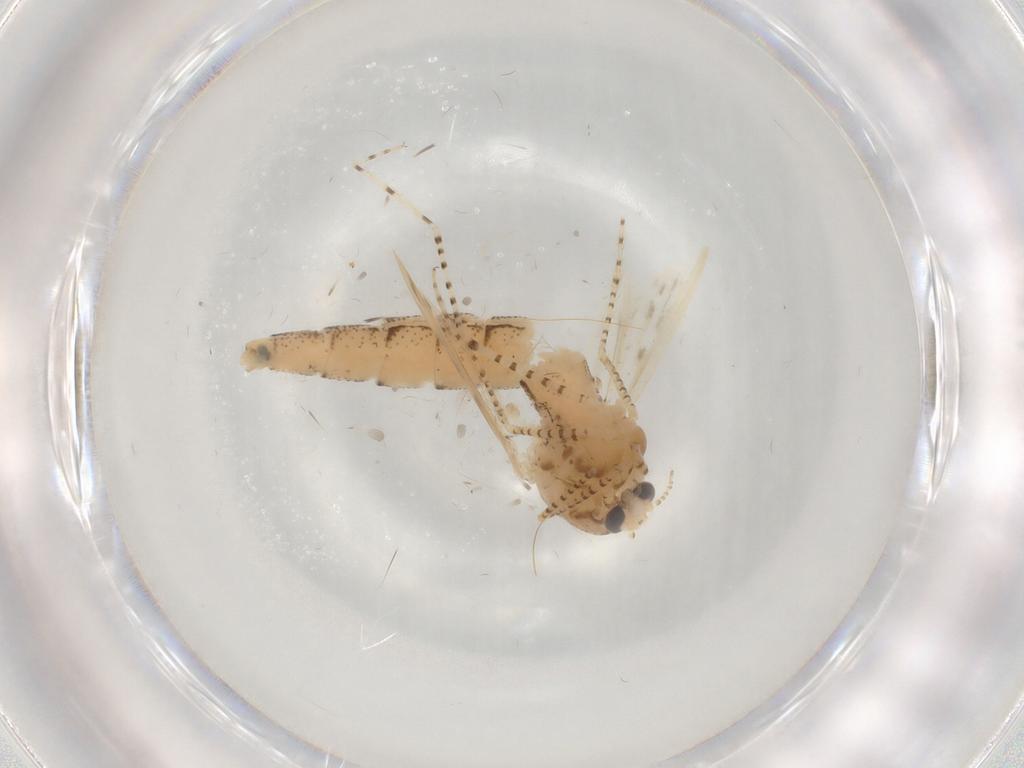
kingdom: Animalia
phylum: Arthropoda
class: Insecta
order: Diptera
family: Chaoboridae
